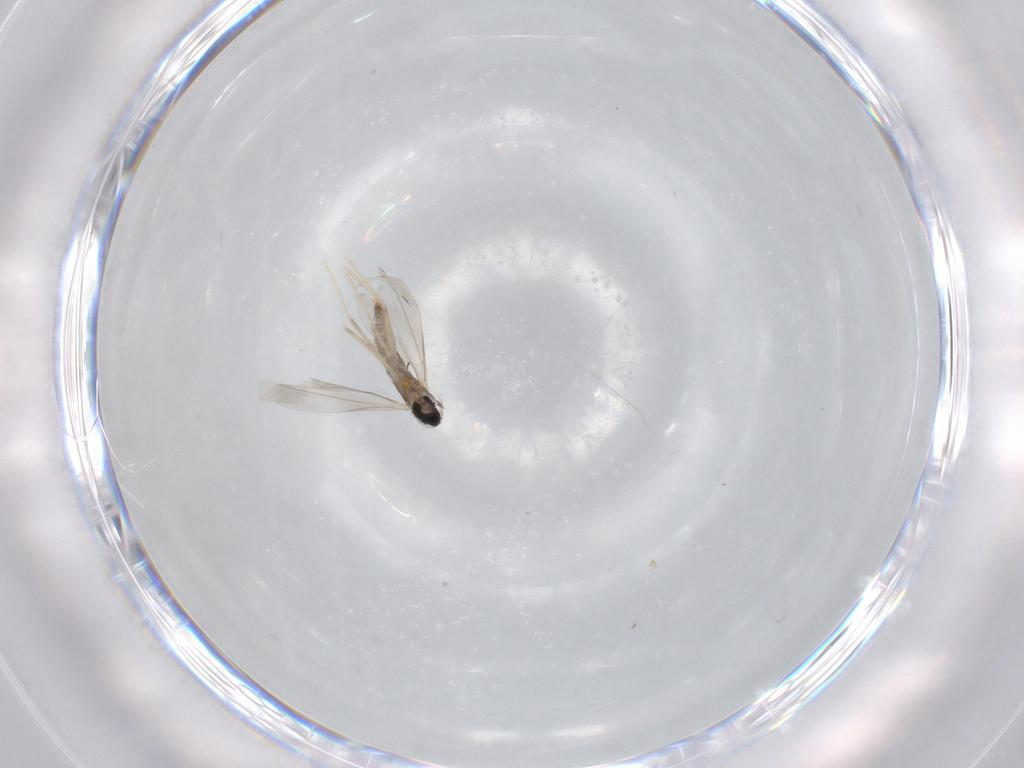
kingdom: Animalia
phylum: Arthropoda
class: Insecta
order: Diptera
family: Cecidomyiidae
